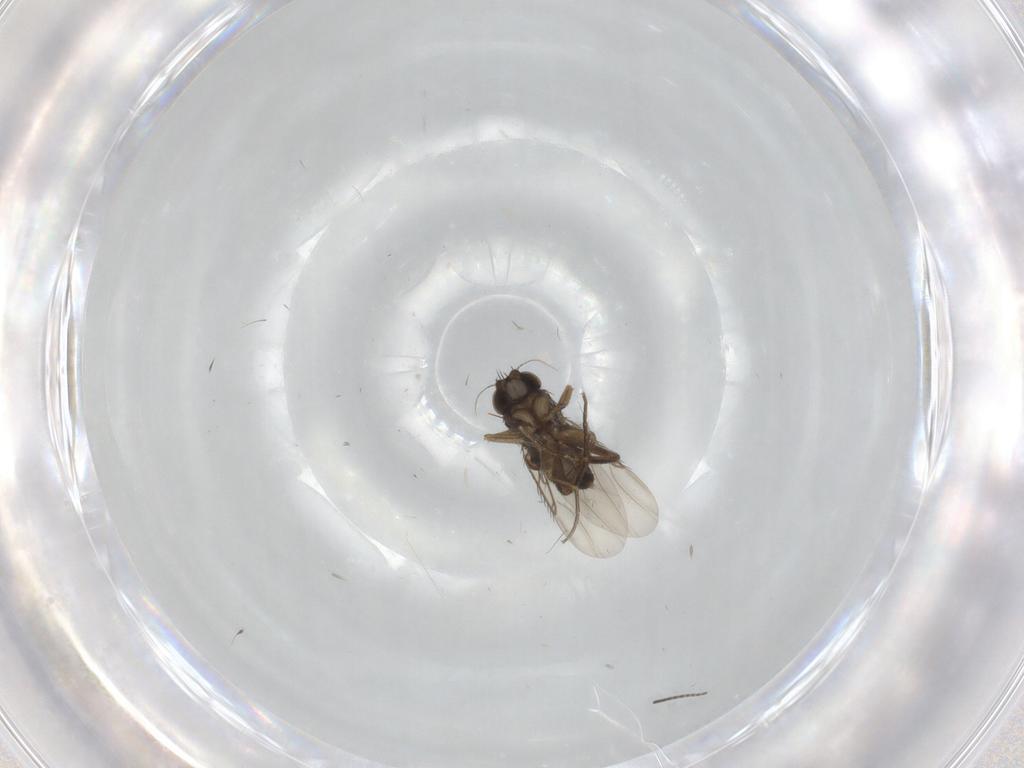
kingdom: Animalia
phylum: Arthropoda
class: Insecta
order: Diptera
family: Phoridae
